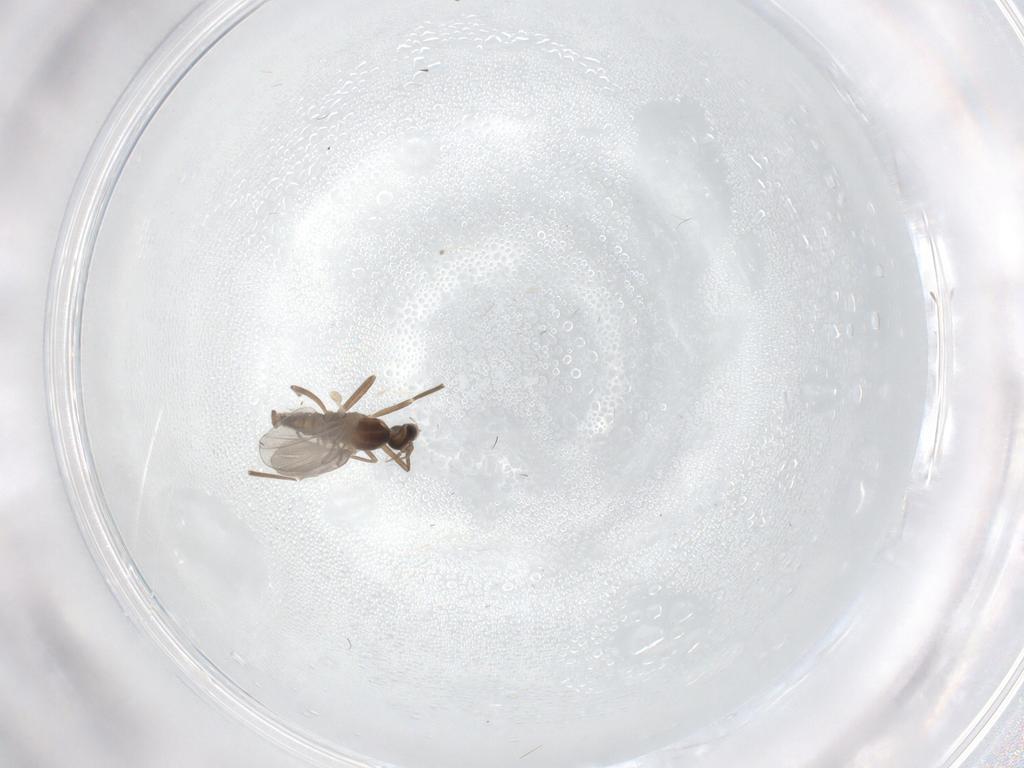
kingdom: Animalia
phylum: Arthropoda
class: Insecta
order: Diptera
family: Cecidomyiidae
